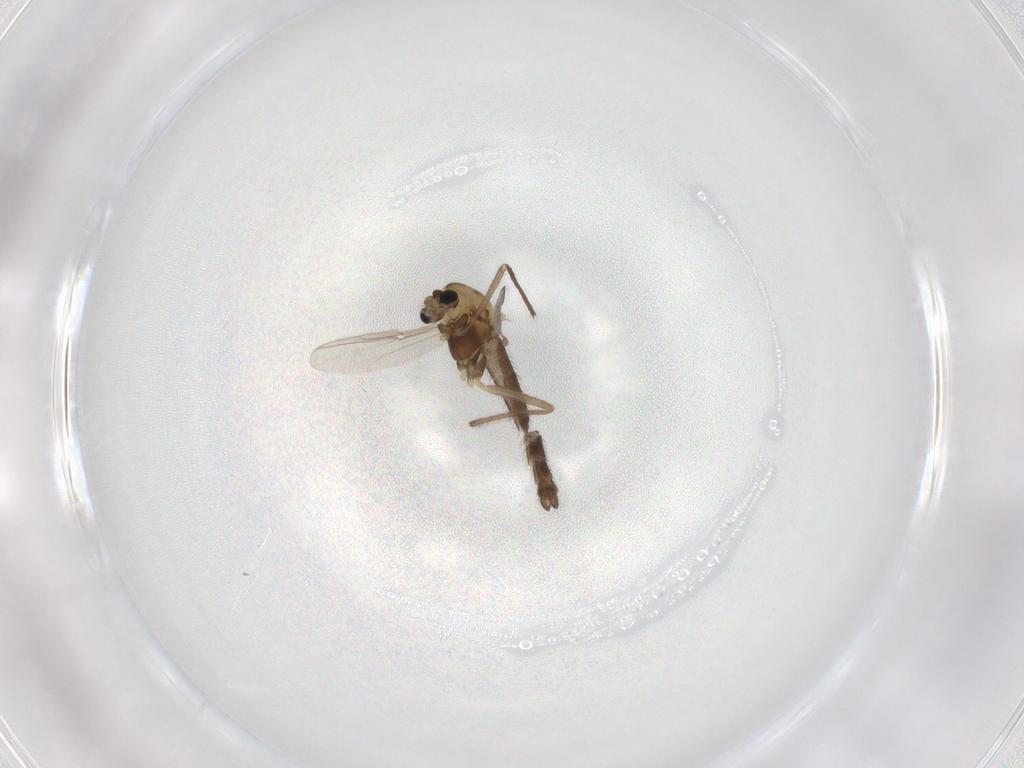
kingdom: Animalia
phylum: Arthropoda
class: Insecta
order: Diptera
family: Chironomidae
